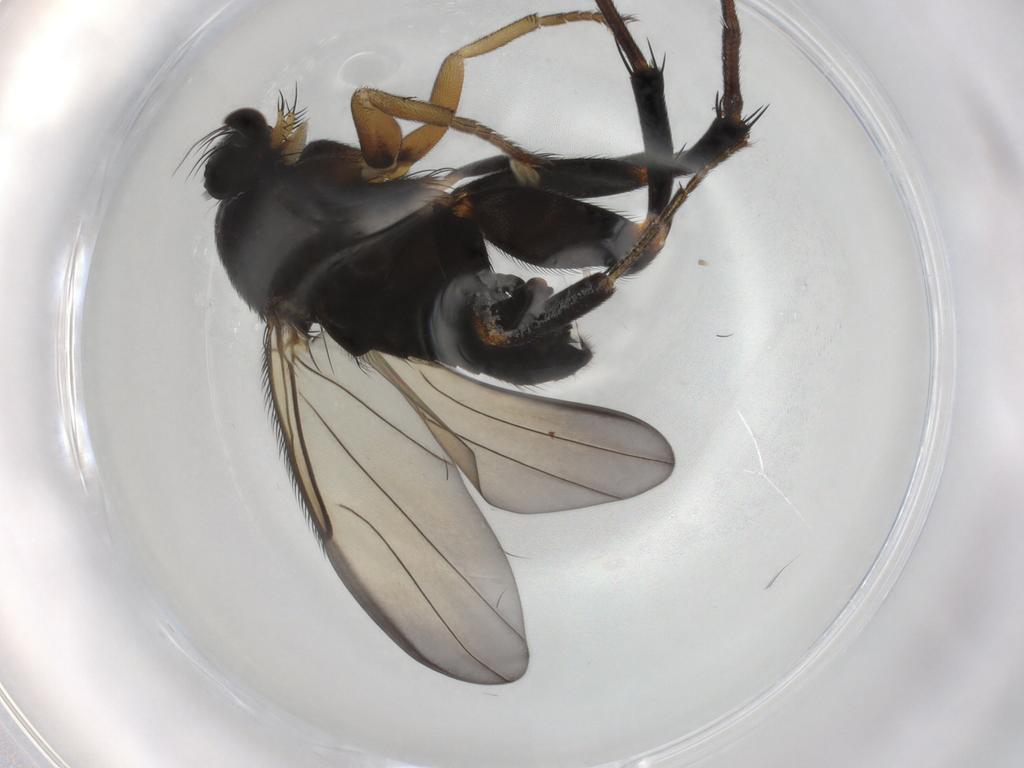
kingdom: Animalia
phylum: Arthropoda
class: Insecta
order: Diptera
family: Phoridae
